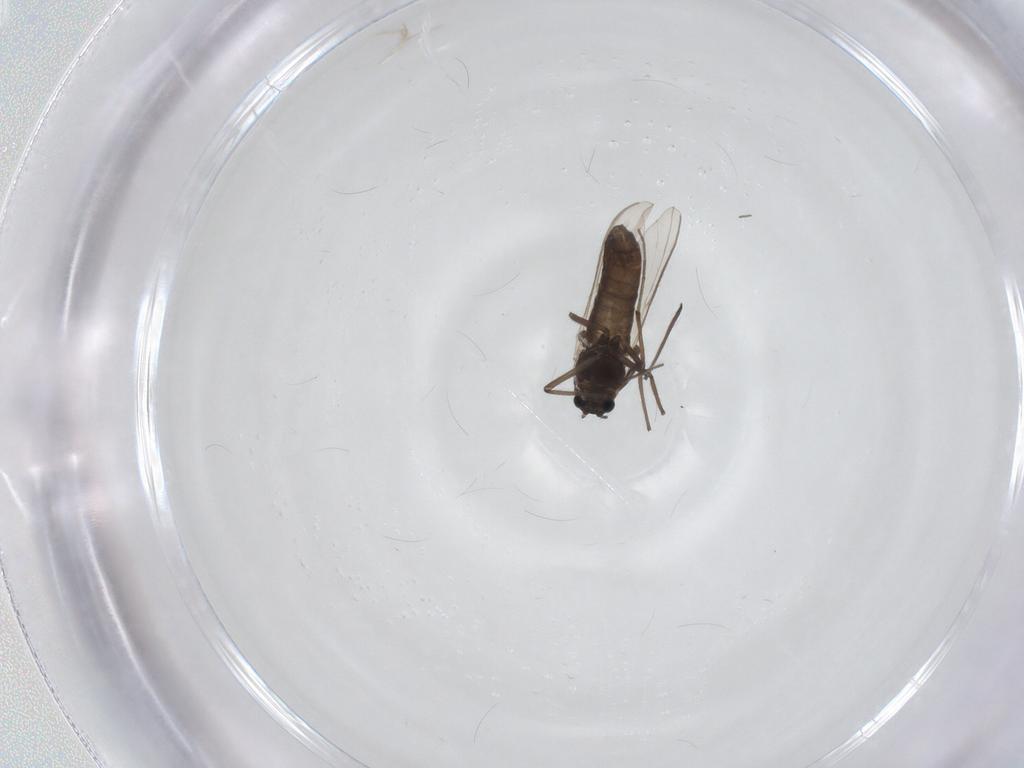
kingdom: Animalia
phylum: Arthropoda
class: Insecta
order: Diptera
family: Chironomidae
